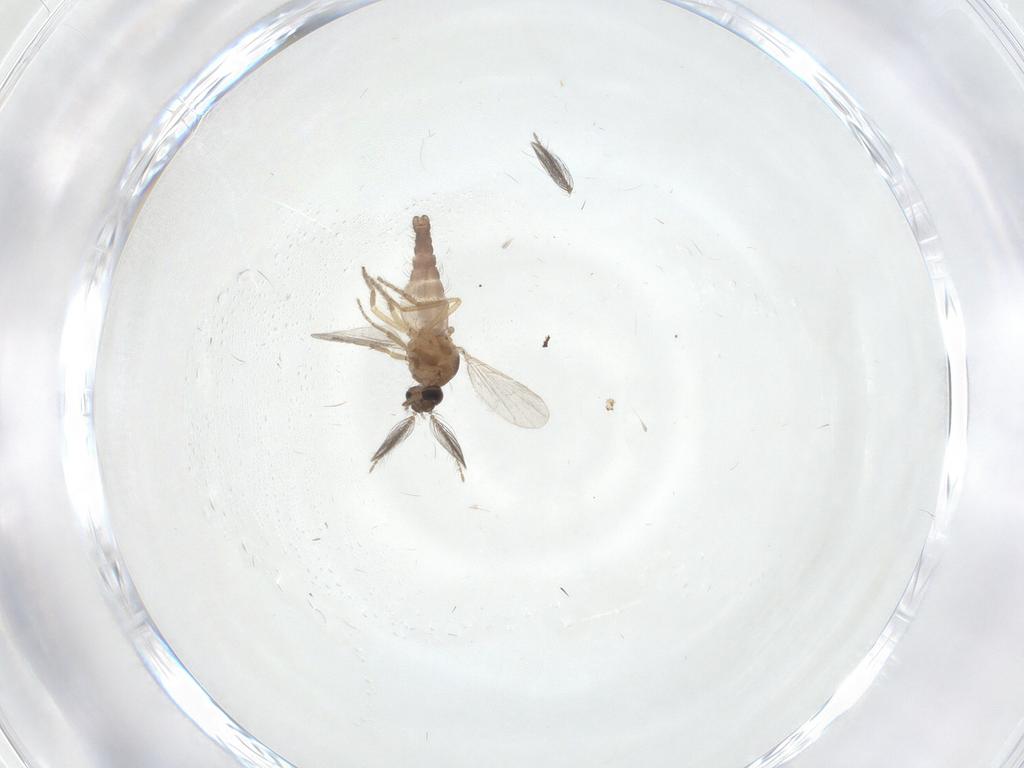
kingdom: Animalia
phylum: Arthropoda
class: Insecta
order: Diptera
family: Ceratopogonidae
